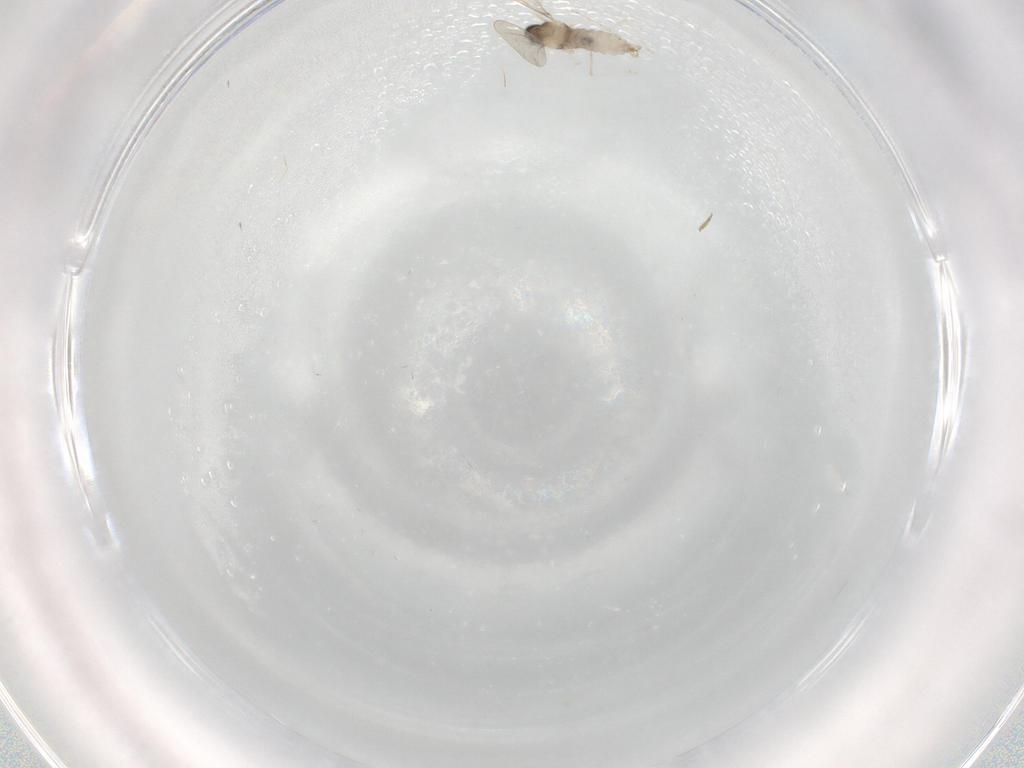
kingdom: Animalia
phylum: Arthropoda
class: Insecta
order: Diptera
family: Cecidomyiidae
